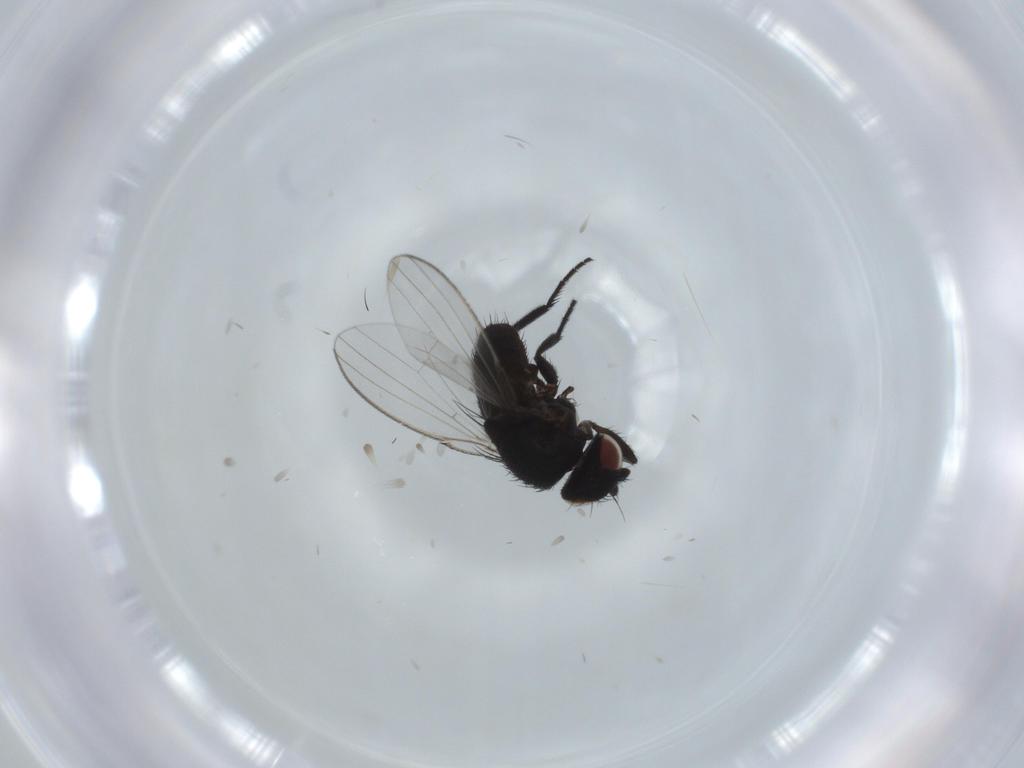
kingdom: Animalia
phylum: Arthropoda
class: Insecta
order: Diptera
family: Milichiidae
